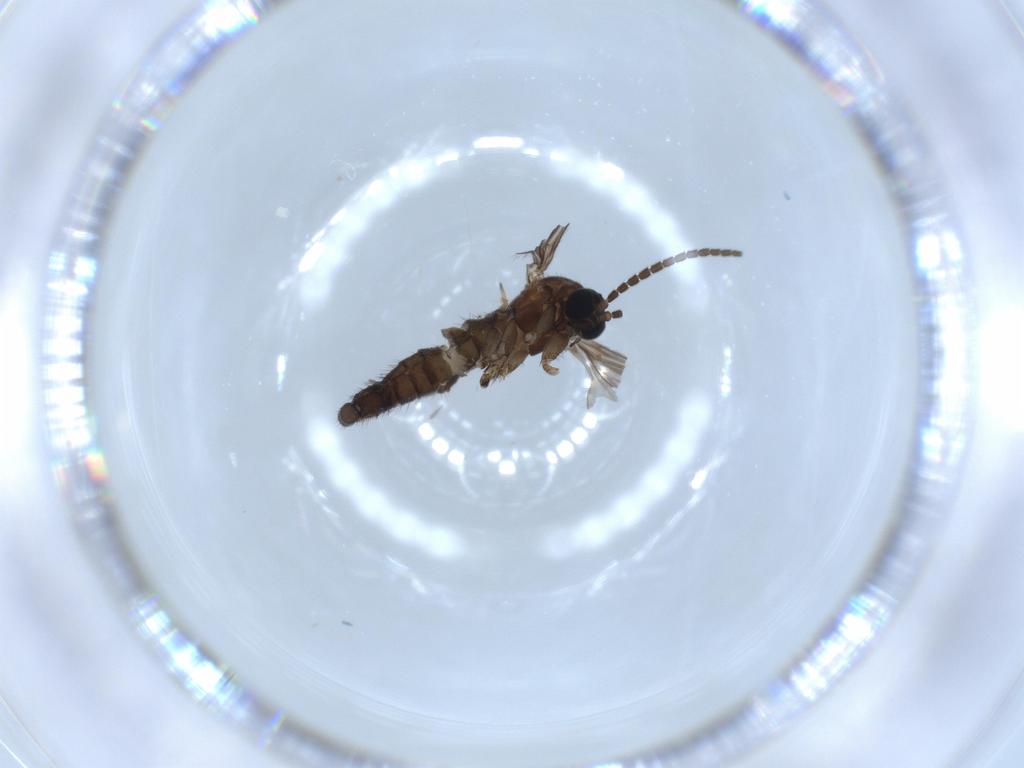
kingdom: Animalia
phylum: Arthropoda
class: Insecta
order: Diptera
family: Sciaridae
